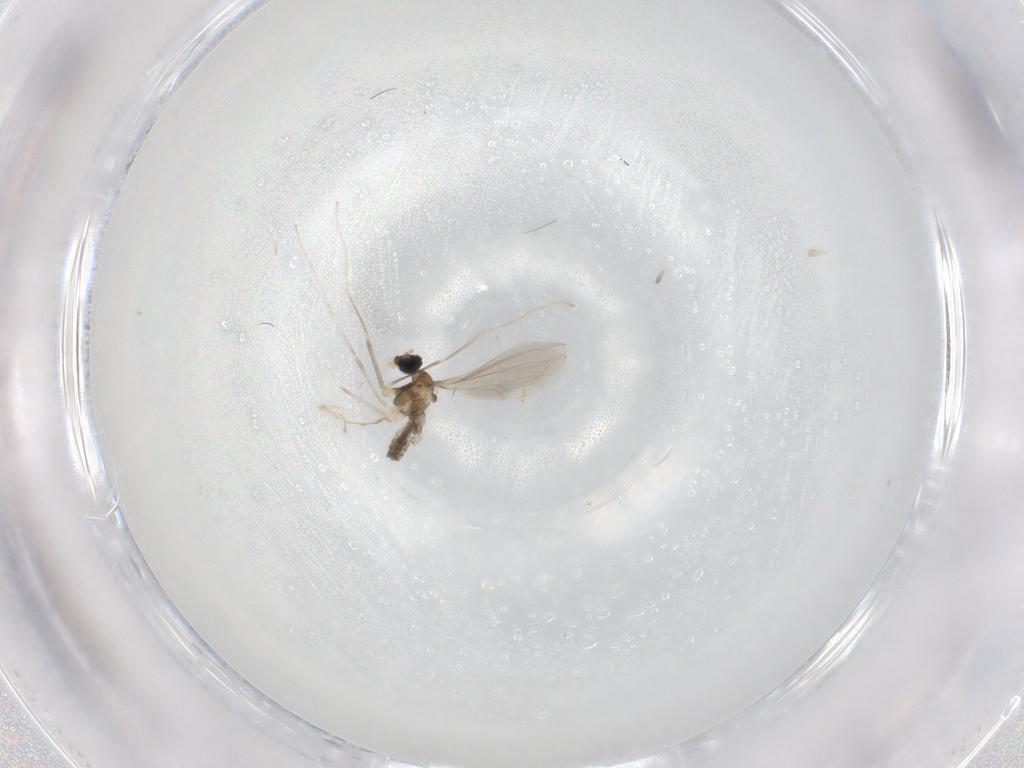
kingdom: Animalia
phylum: Arthropoda
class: Insecta
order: Diptera
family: Cecidomyiidae
